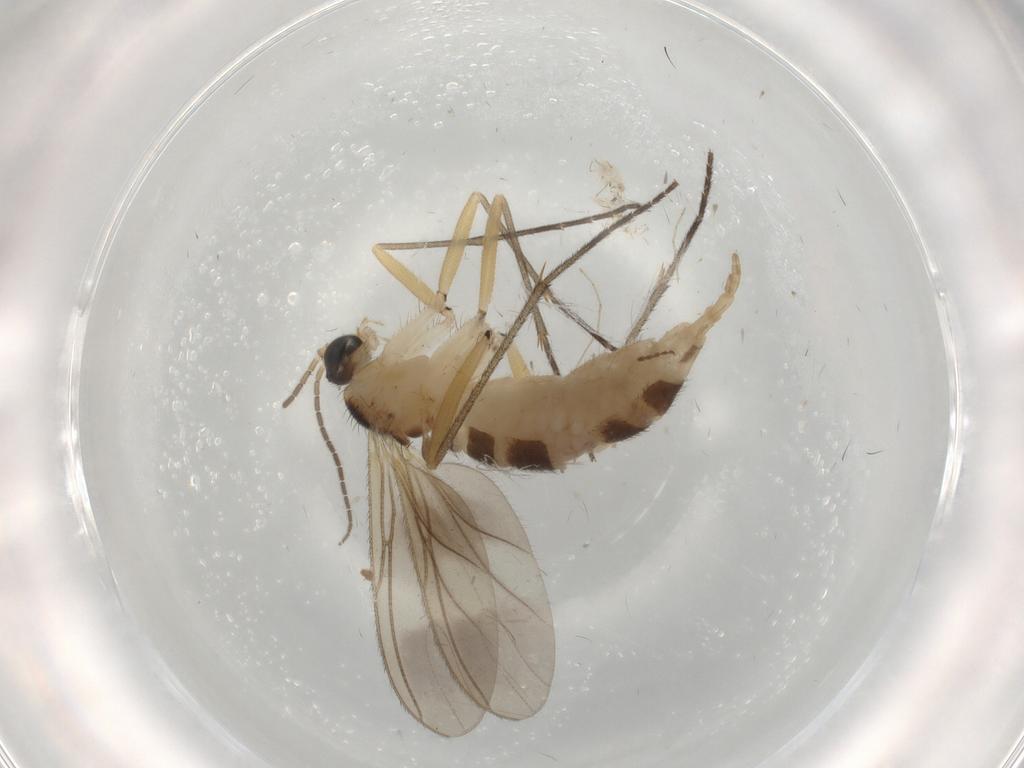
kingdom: Animalia
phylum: Arthropoda
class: Insecta
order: Diptera
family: Sciaridae
